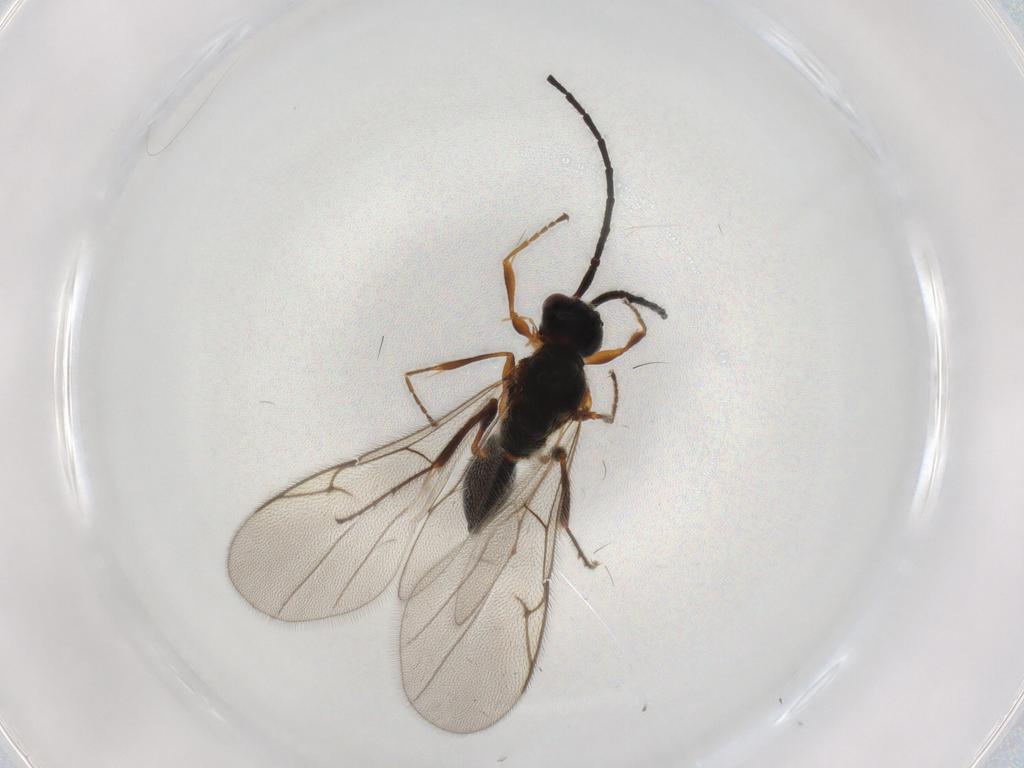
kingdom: Animalia
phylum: Arthropoda
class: Insecta
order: Hymenoptera
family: Diapriidae
